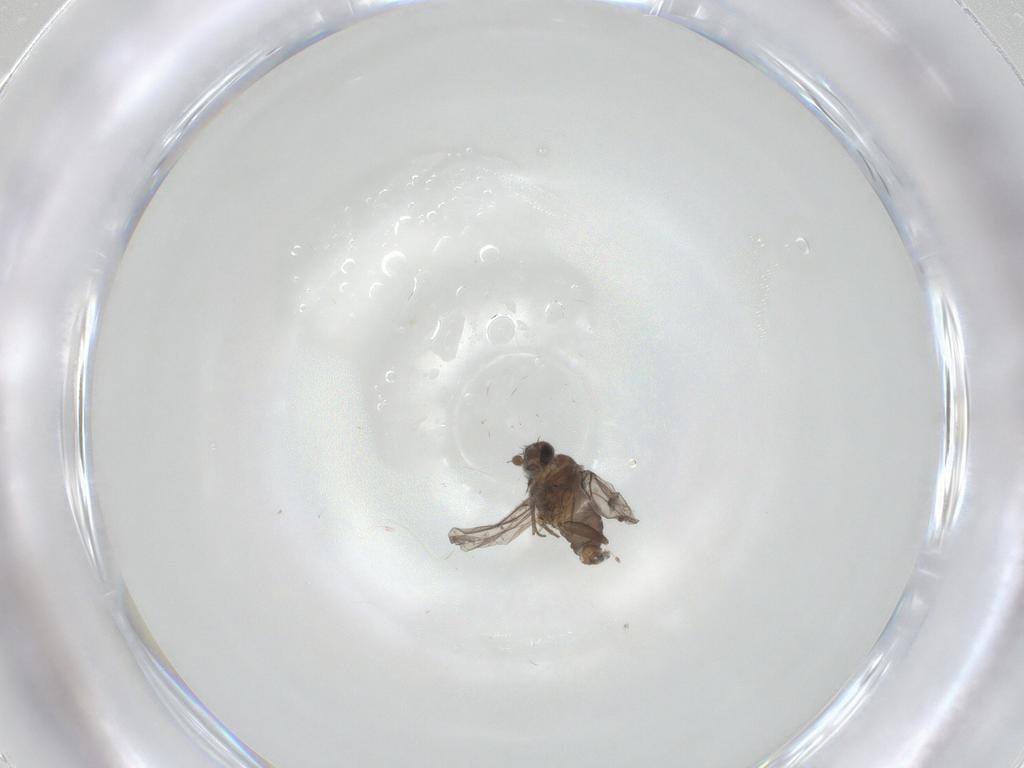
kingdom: Animalia
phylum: Arthropoda
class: Insecta
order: Diptera
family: Phoridae
